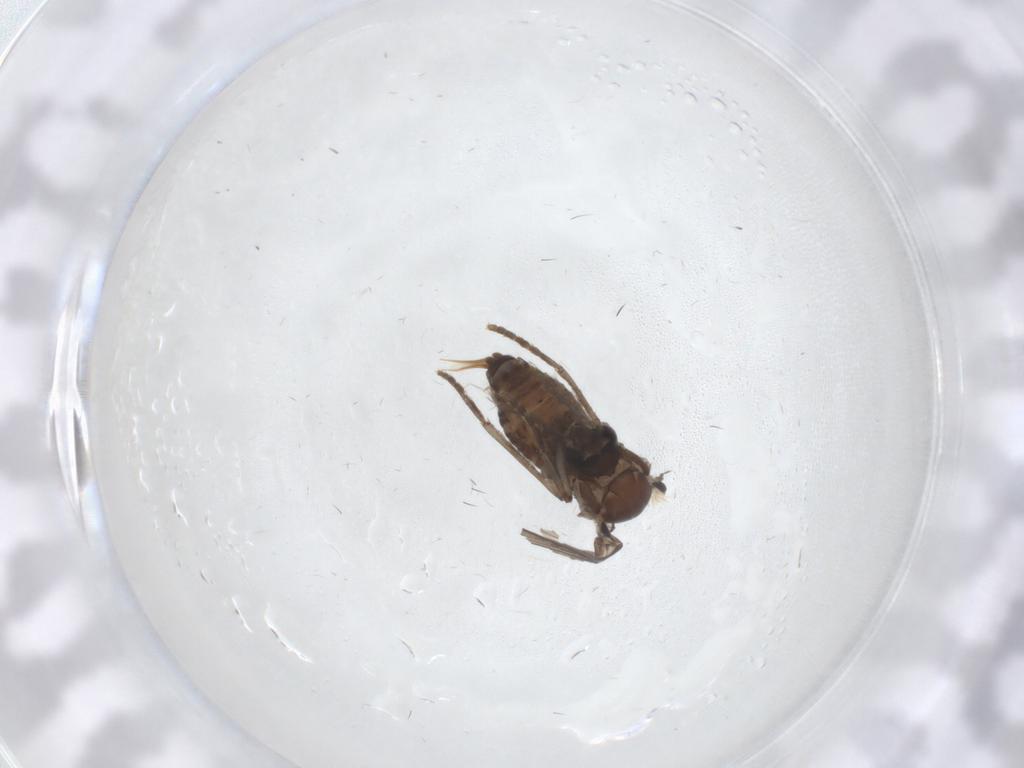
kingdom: Animalia
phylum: Arthropoda
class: Insecta
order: Diptera
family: Psychodidae
